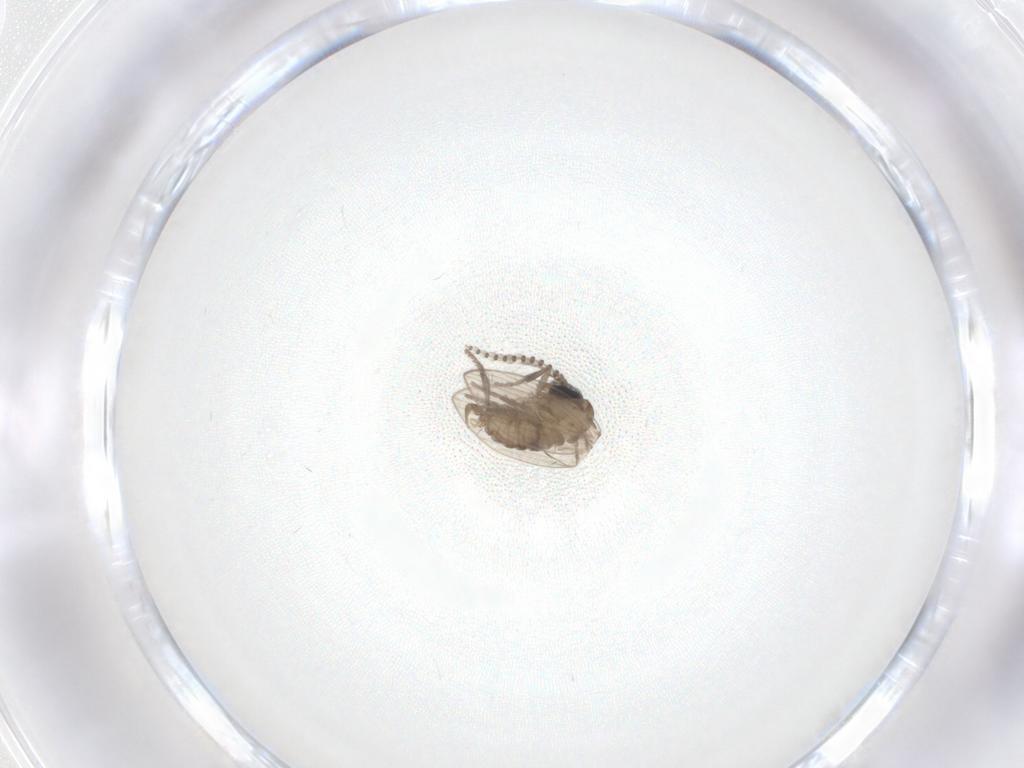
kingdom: Animalia
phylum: Arthropoda
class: Insecta
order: Diptera
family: Psychodidae
